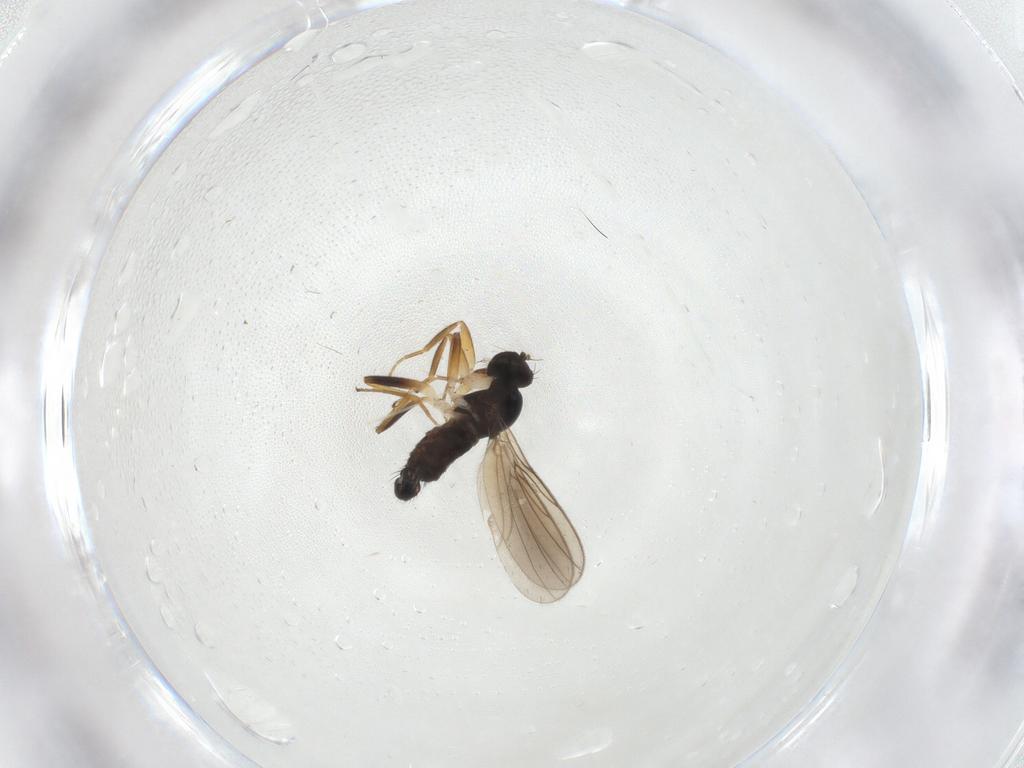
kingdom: Animalia
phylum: Arthropoda
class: Insecta
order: Diptera
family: Hybotidae
